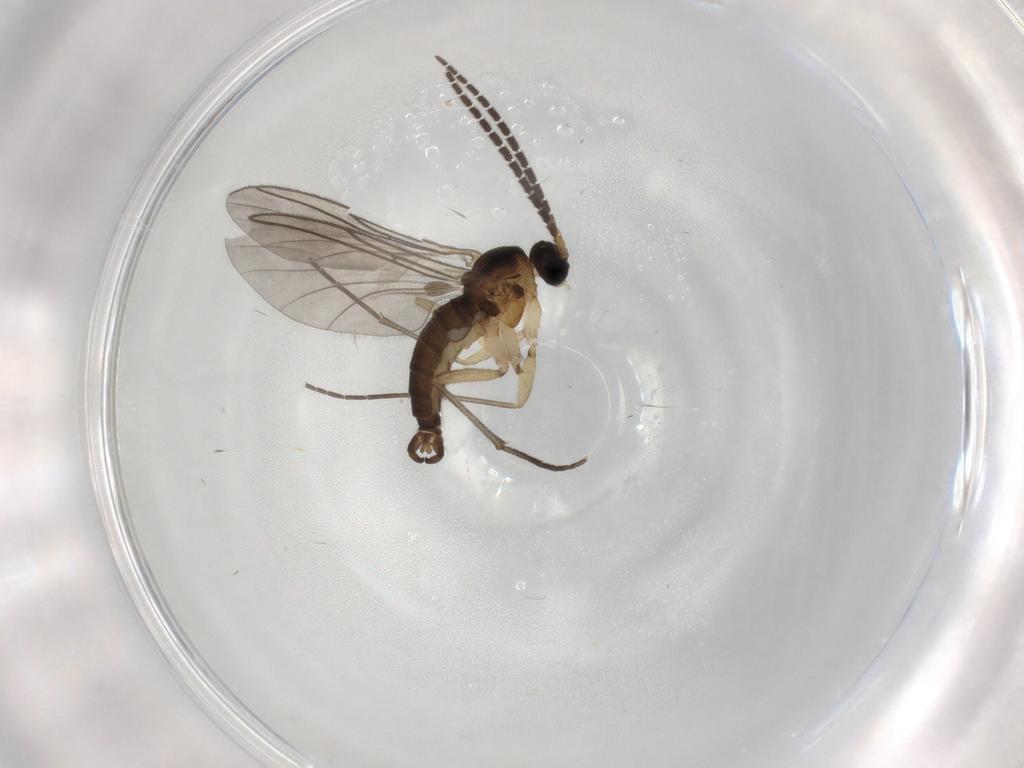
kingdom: Animalia
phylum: Arthropoda
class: Insecta
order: Diptera
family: Sciaridae
